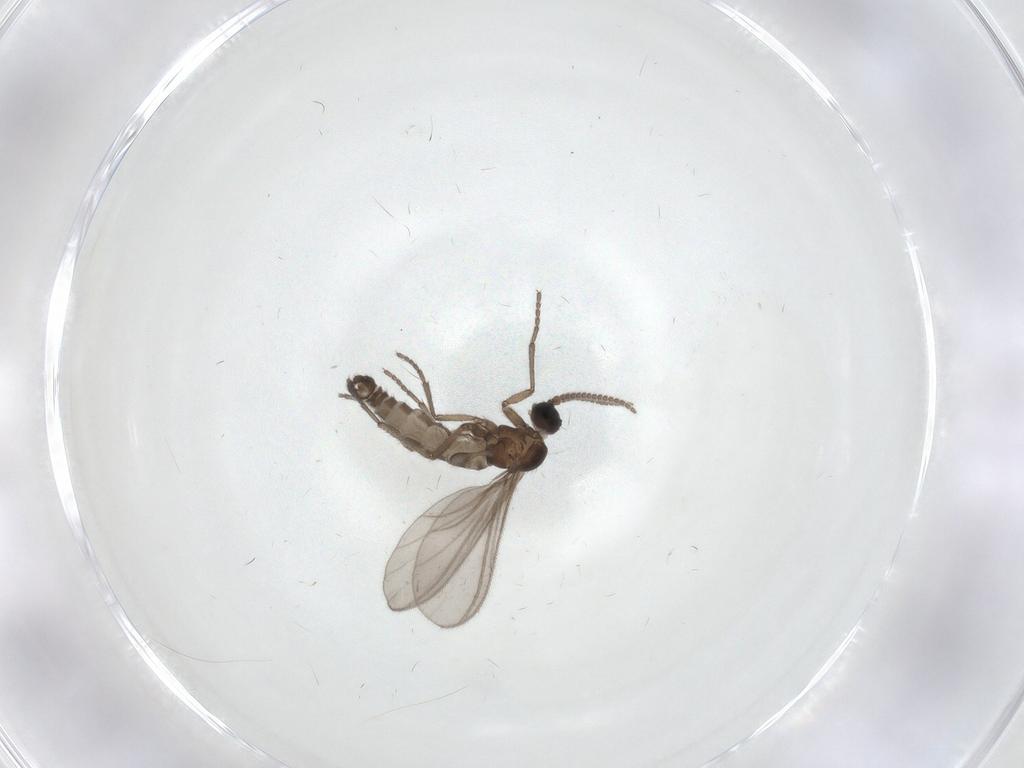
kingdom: Animalia
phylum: Arthropoda
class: Insecta
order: Diptera
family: Sciaridae
